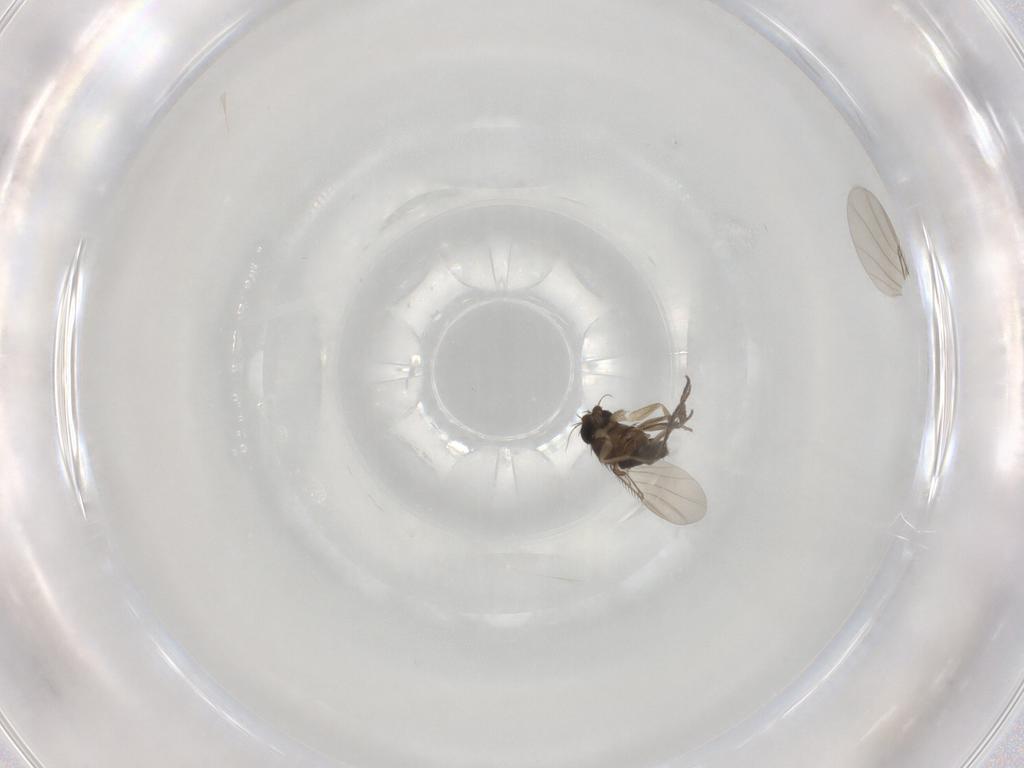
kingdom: Animalia
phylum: Arthropoda
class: Insecta
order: Diptera
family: Phoridae
